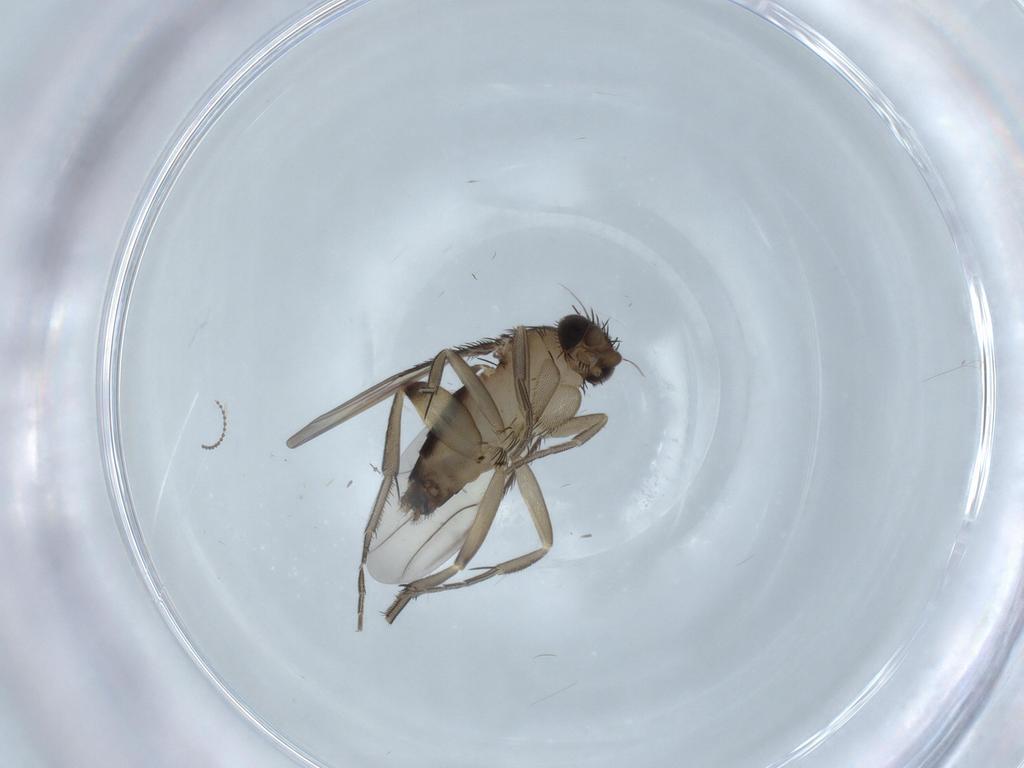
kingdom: Animalia
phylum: Arthropoda
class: Insecta
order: Diptera
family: Phoridae
